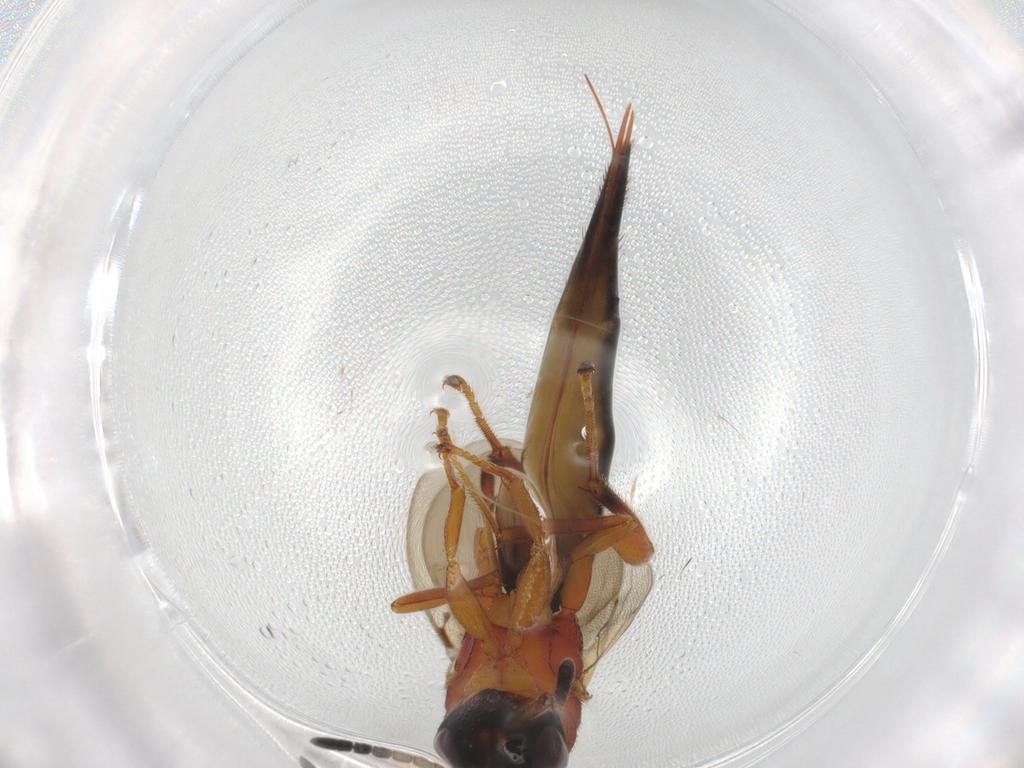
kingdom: Animalia
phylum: Arthropoda
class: Insecta
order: Hymenoptera
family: Eurytomidae
